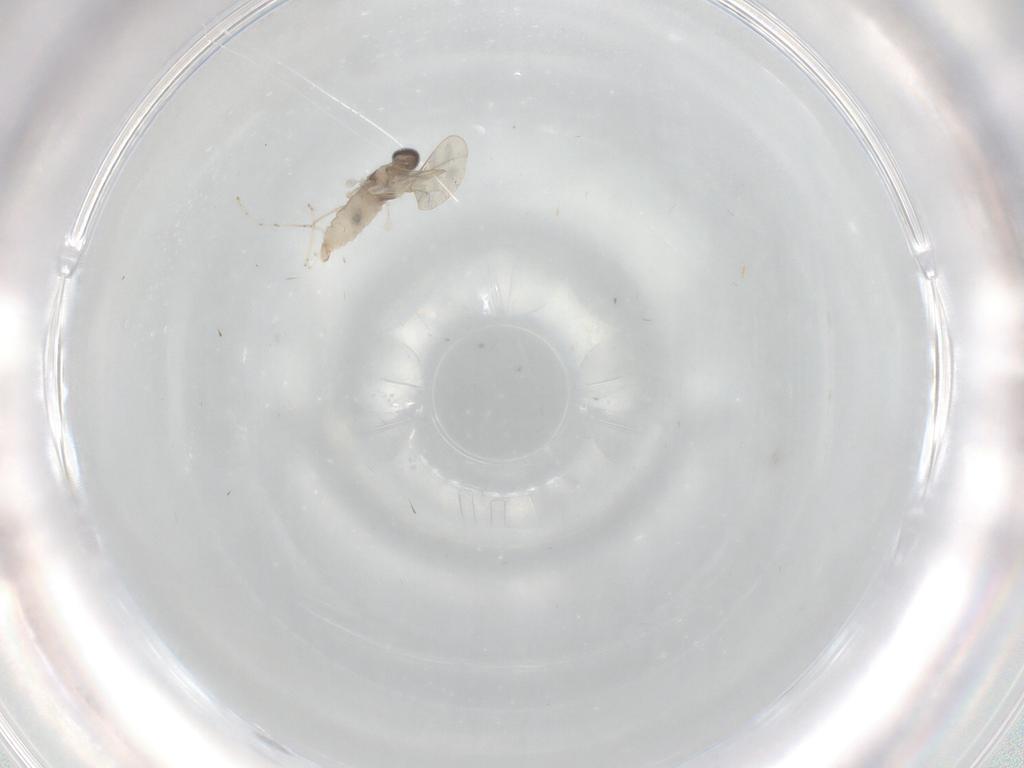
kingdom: Animalia
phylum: Arthropoda
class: Insecta
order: Diptera
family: Cecidomyiidae
